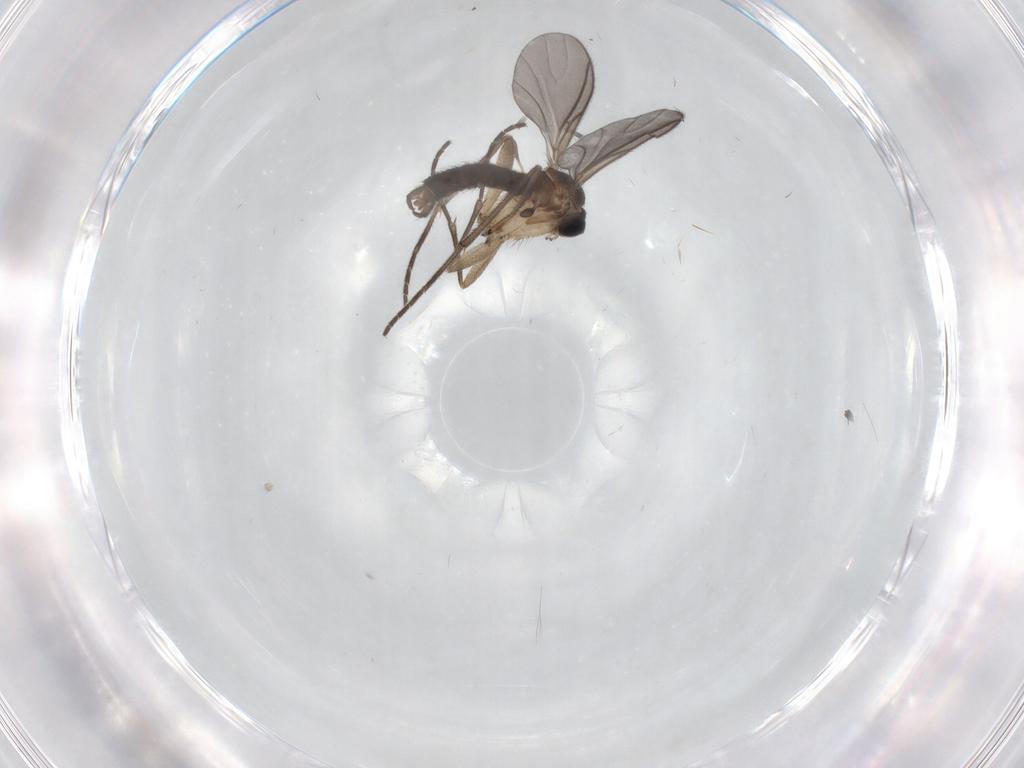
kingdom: Animalia
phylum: Arthropoda
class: Insecta
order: Diptera
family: Sciaridae
